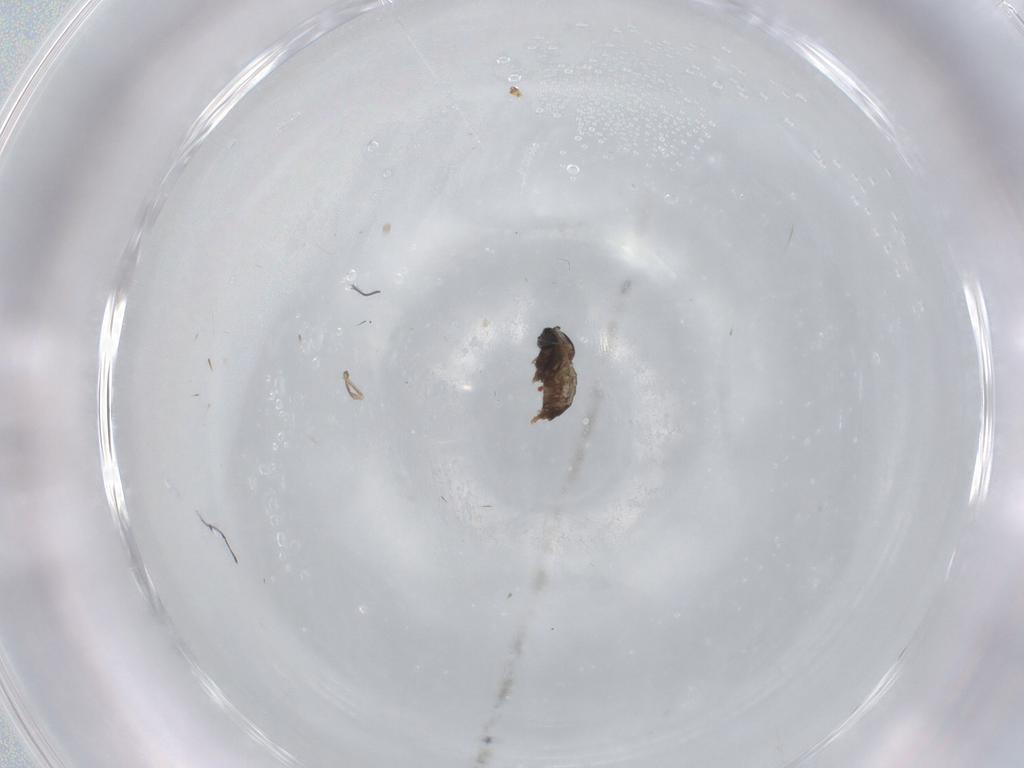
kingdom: Animalia
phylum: Arthropoda
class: Insecta
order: Diptera
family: Cecidomyiidae
